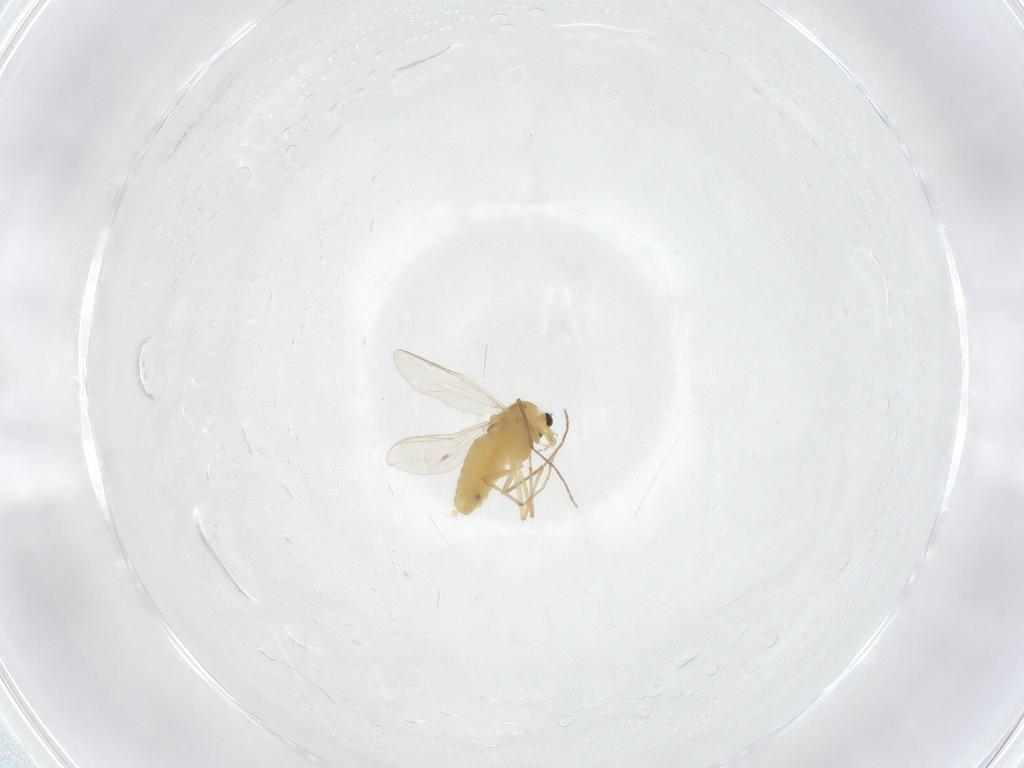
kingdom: Animalia
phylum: Arthropoda
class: Insecta
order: Diptera
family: Chironomidae
